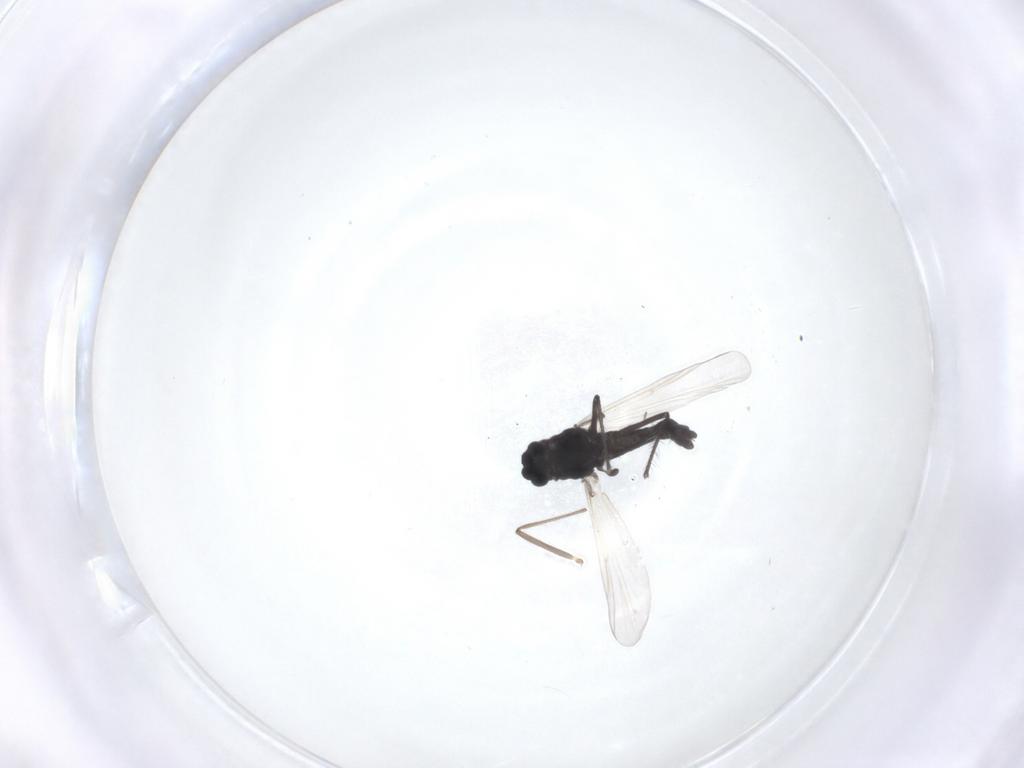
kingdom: Animalia
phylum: Arthropoda
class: Insecta
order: Diptera
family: Chironomidae
